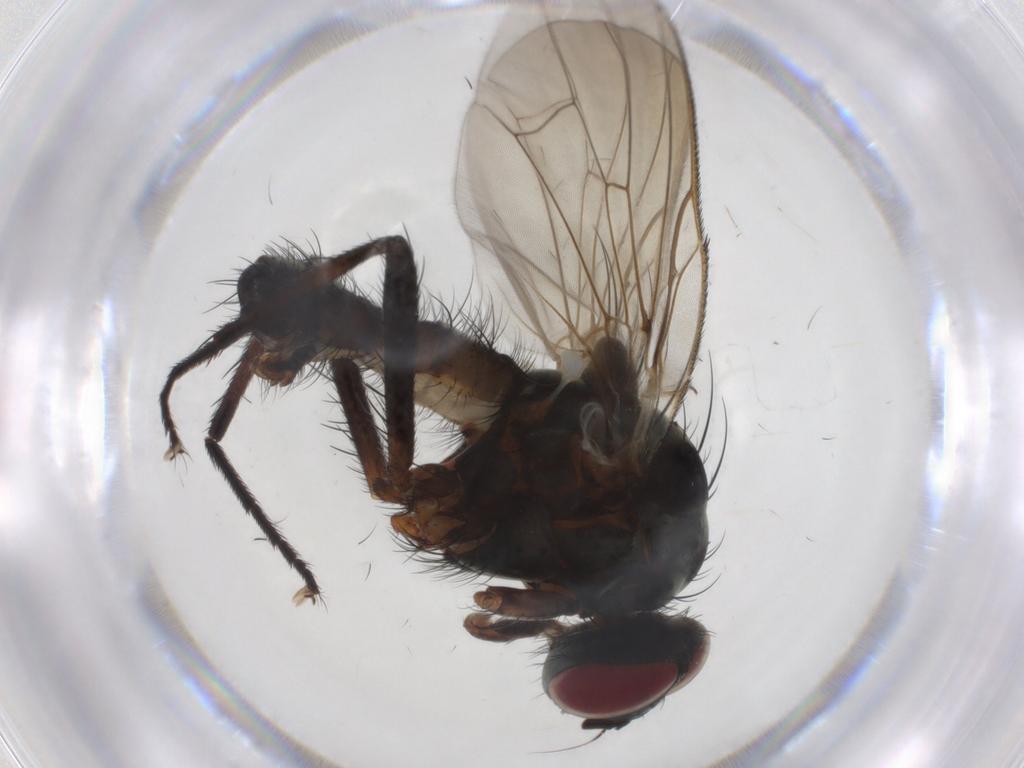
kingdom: Animalia
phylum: Arthropoda
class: Insecta
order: Diptera
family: Anthomyiidae
